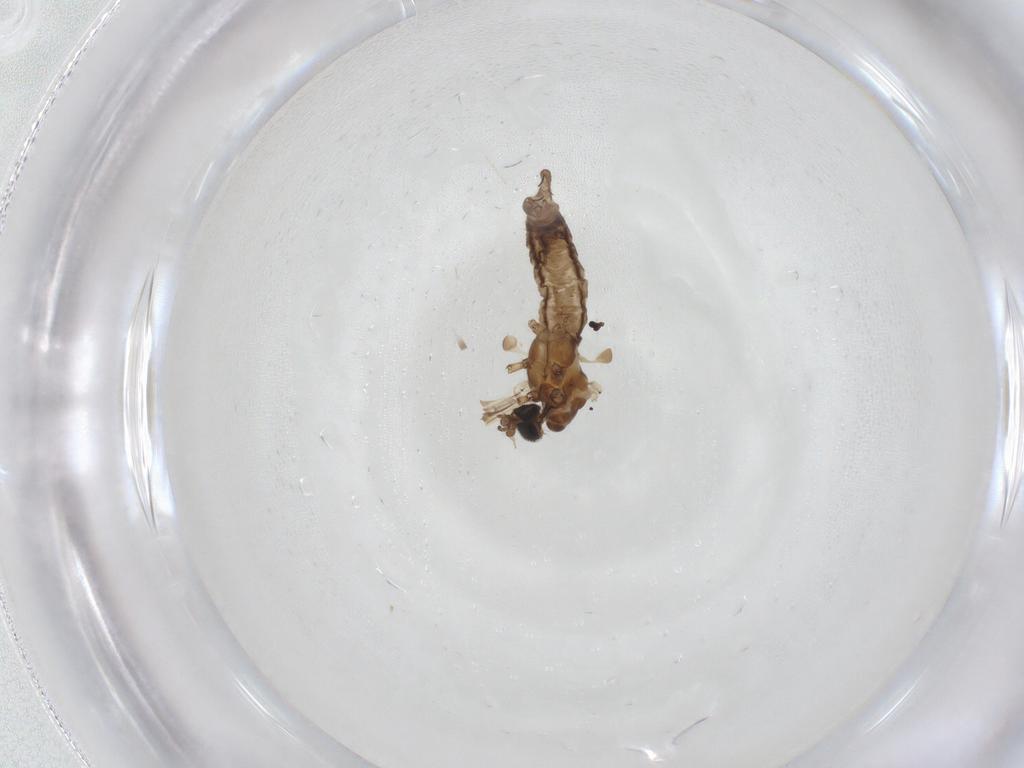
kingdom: Animalia
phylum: Arthropoda
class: Insecta
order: Diptera
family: Limoniidae
